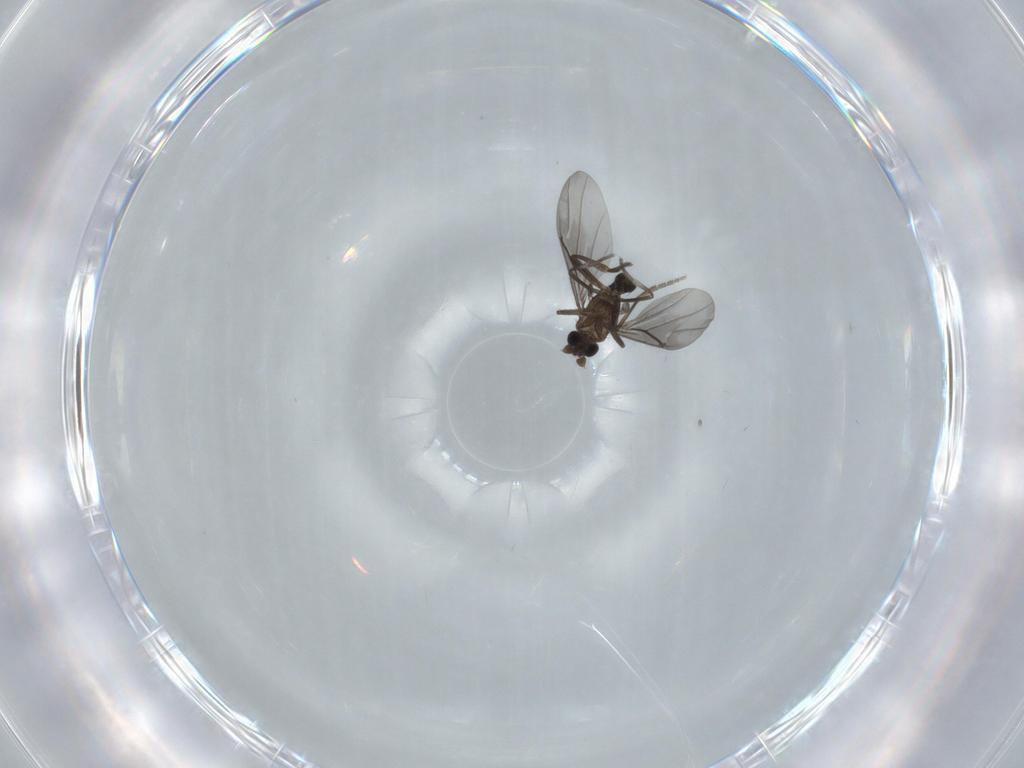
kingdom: Animalia
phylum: Arthropoda
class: Insecta
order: Diptera
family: Phoridae
